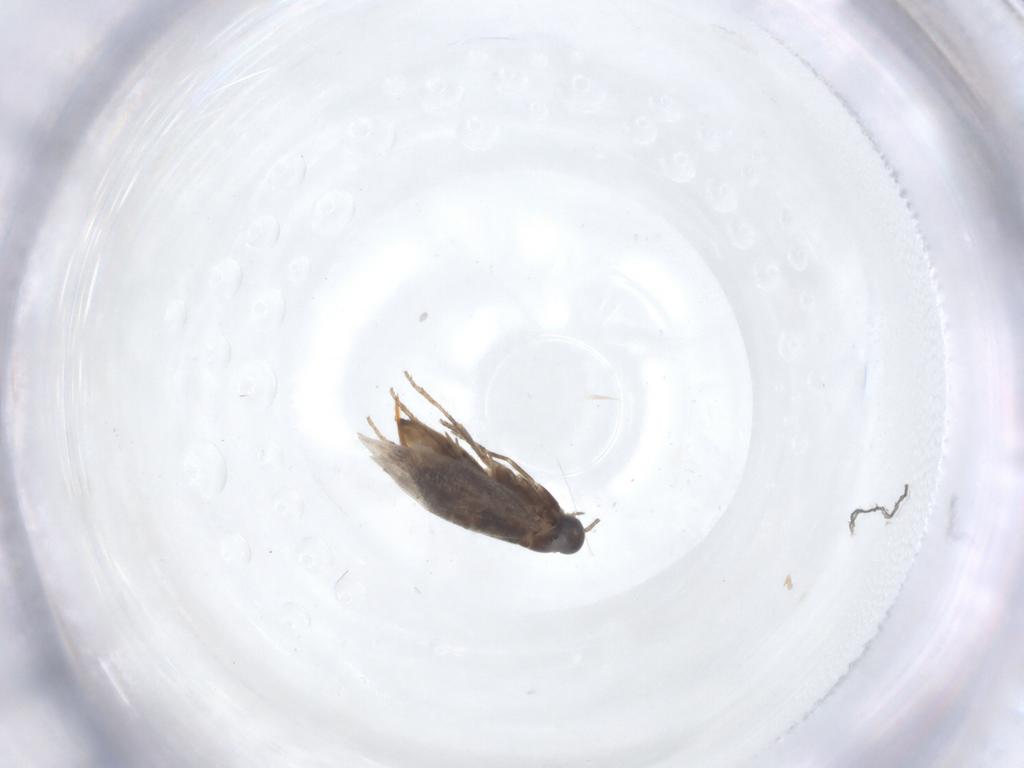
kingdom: Animalia
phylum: Arthropoda
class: Insecta
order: Lepidoptera
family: Heliozelidae
